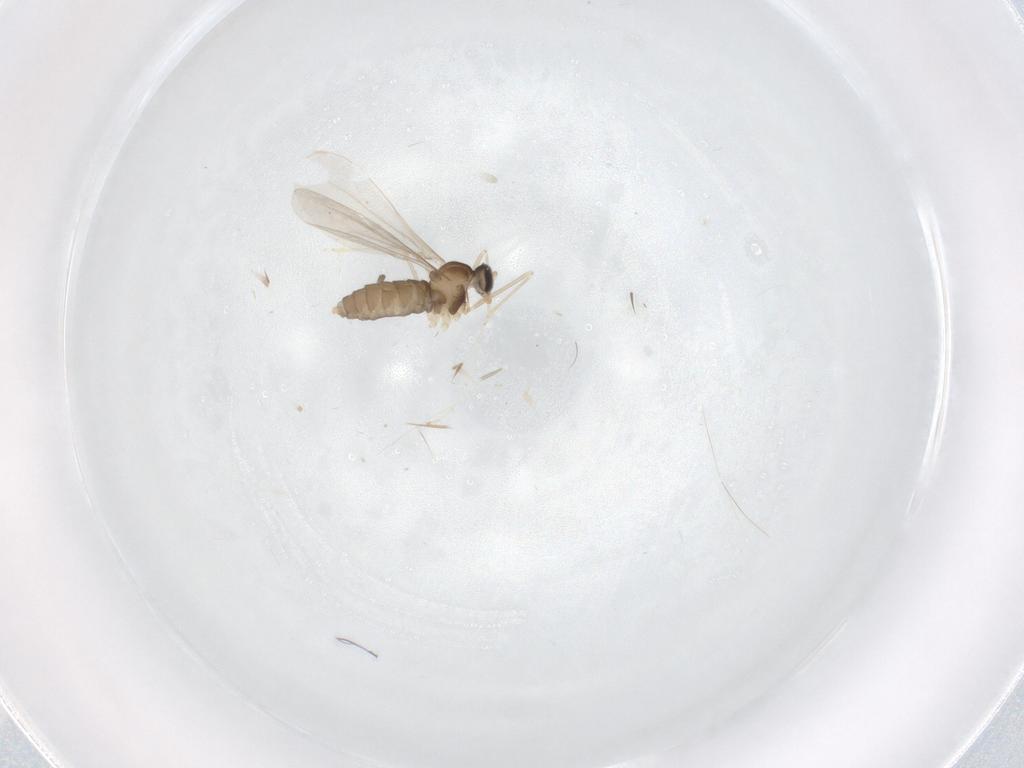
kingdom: Animalia
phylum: Arthropoda
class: Insecta
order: Diptera
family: Cecidomyiidae
